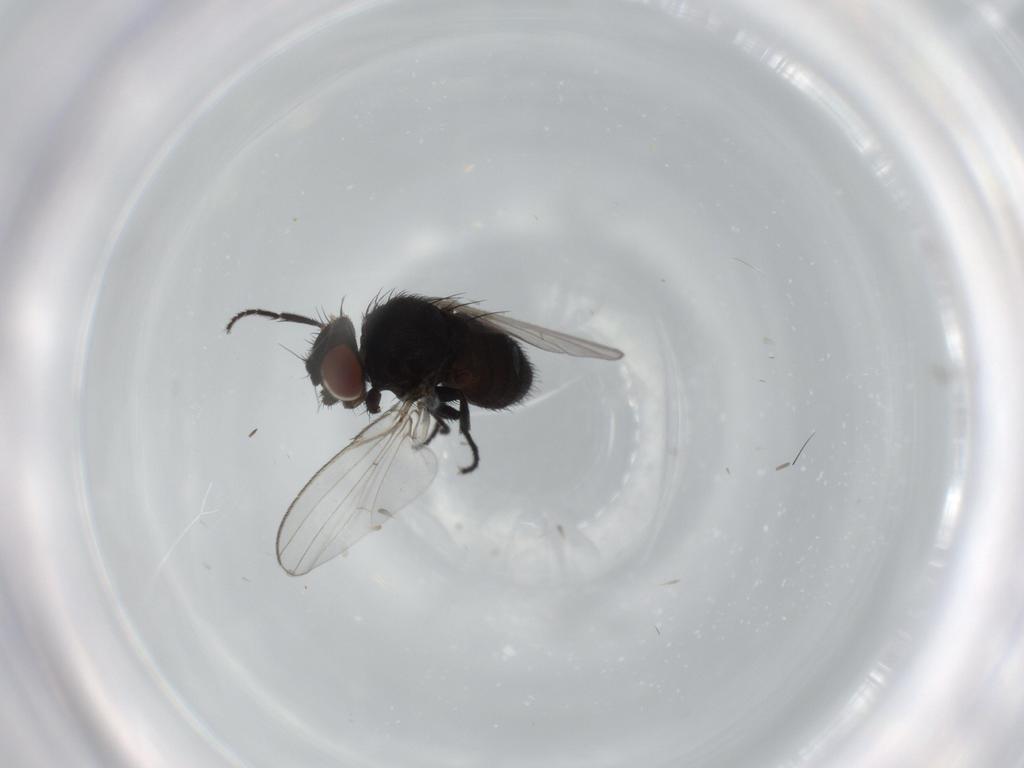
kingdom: Animalia
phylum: Arthropoda
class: Insecta
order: Diptera
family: Milichiidae
